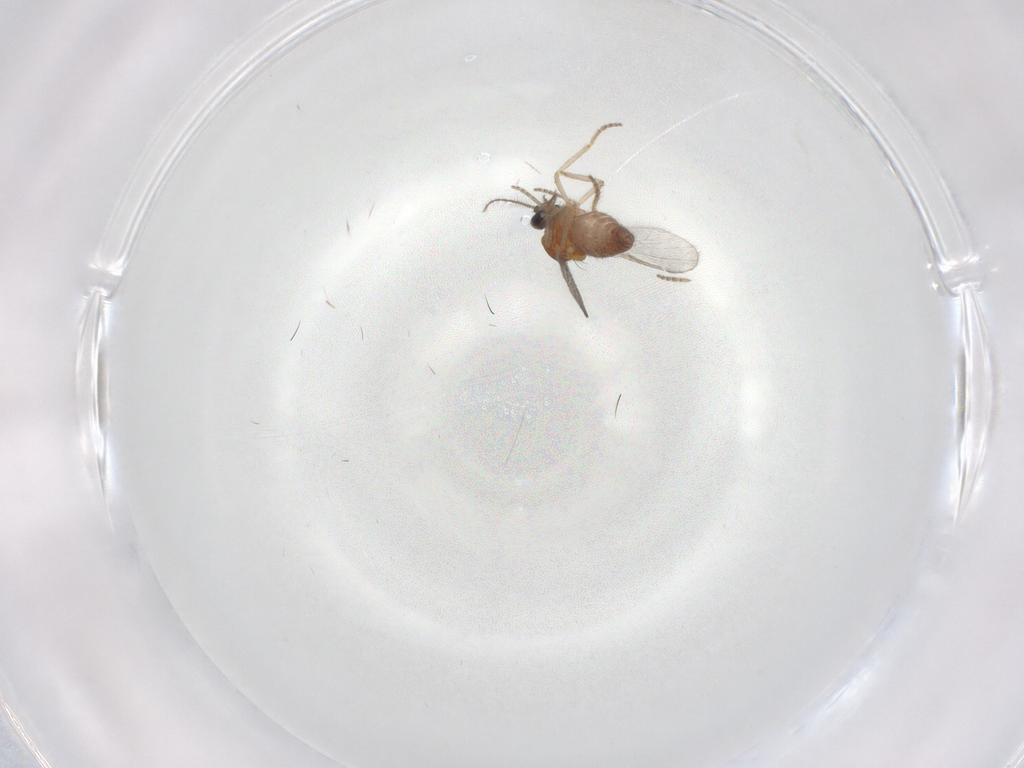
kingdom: Animalia
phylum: Arthropoda
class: Insecta
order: Diptera
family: Ceratopogonidae
